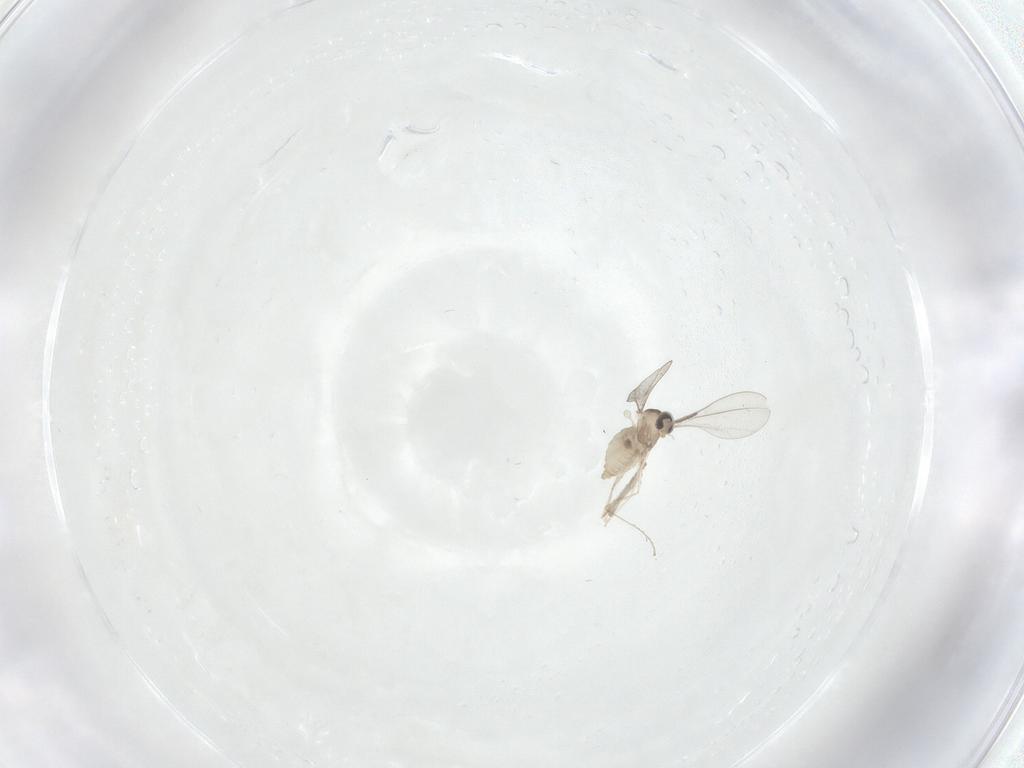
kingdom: Animalia
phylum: Arthropoda
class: Insecta
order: Diptera
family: Psychodidae
